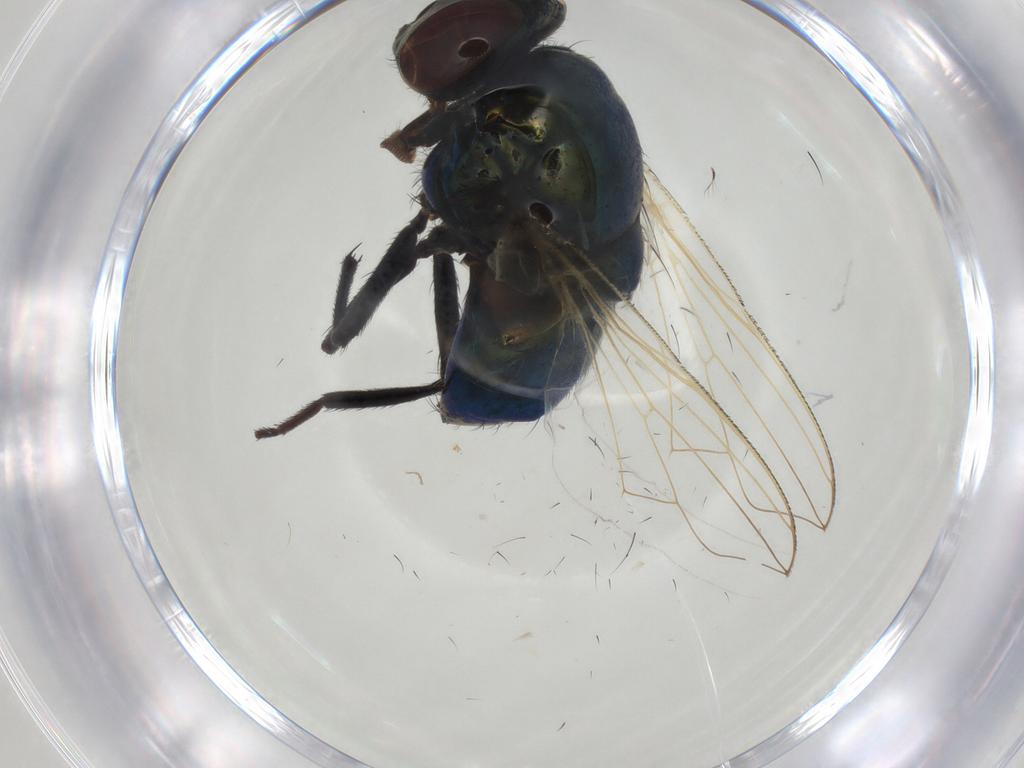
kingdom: Animalia
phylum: Arthropoda
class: Insecta
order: Diptera
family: Muscidae
